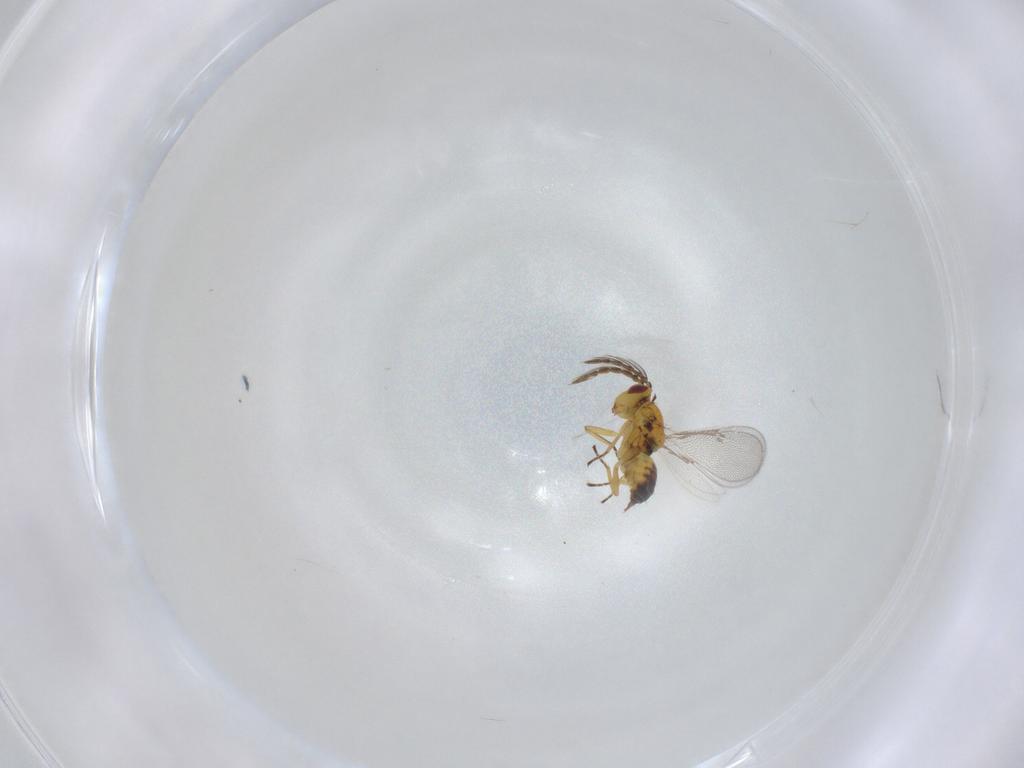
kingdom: Animalia
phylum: Arthropoda
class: Insecta
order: Hymenoptera
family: Eulophidae
